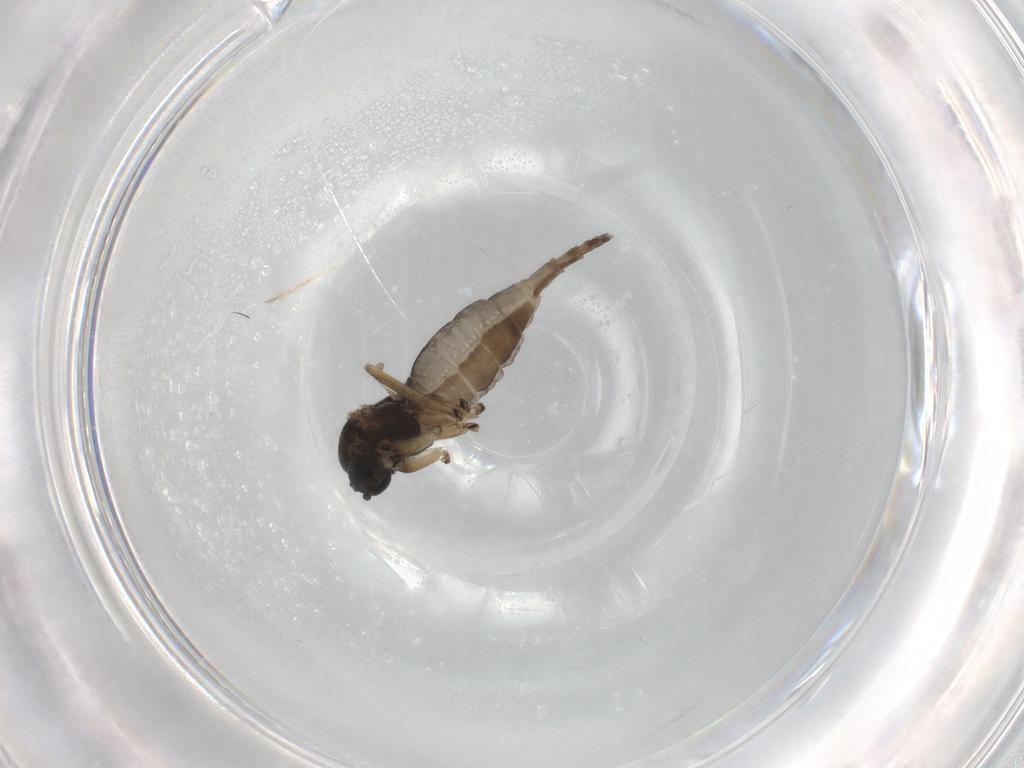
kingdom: Animalia
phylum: Arthropoda
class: Insecta
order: Diptera
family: Sciaridae
